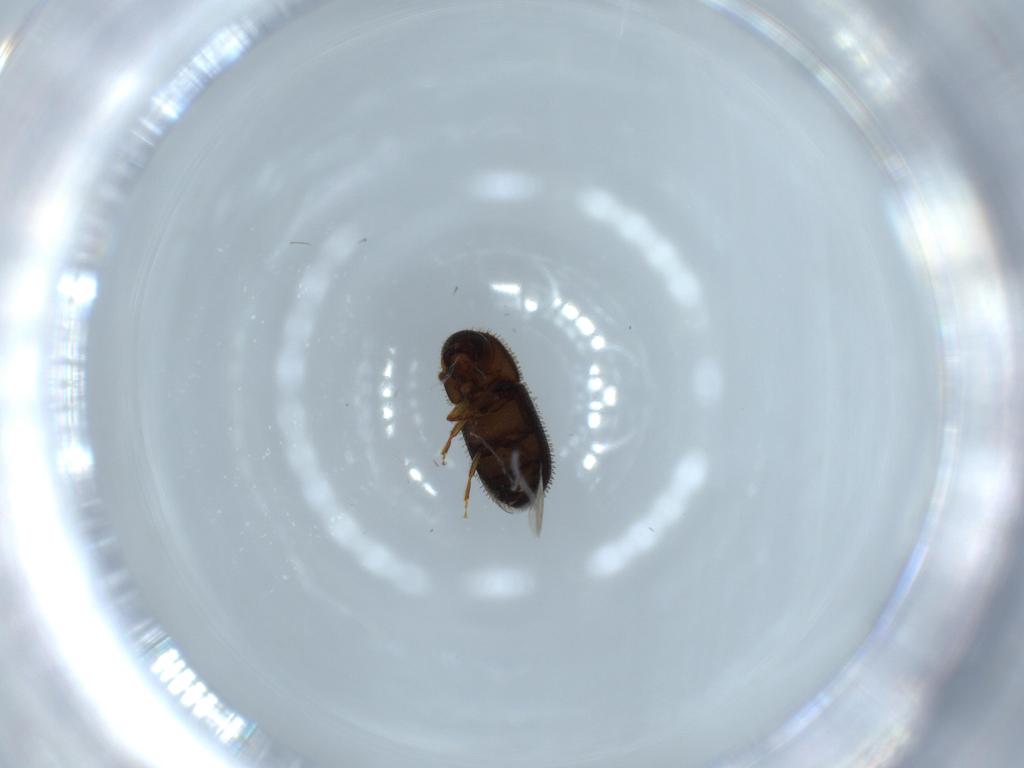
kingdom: Animalia
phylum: Arthropoda
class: Insecta
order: Coleoptera
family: Curculionidae
